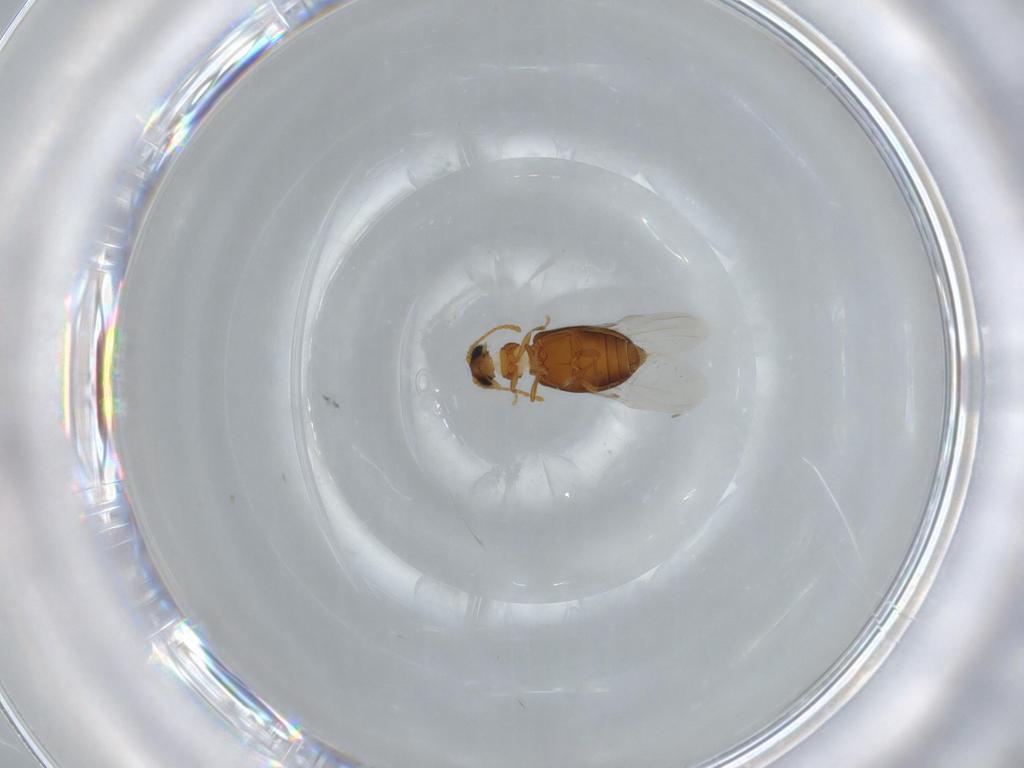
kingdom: Animalia
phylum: Arthropoda
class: Insecta
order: Coleoptera
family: Aderidae
